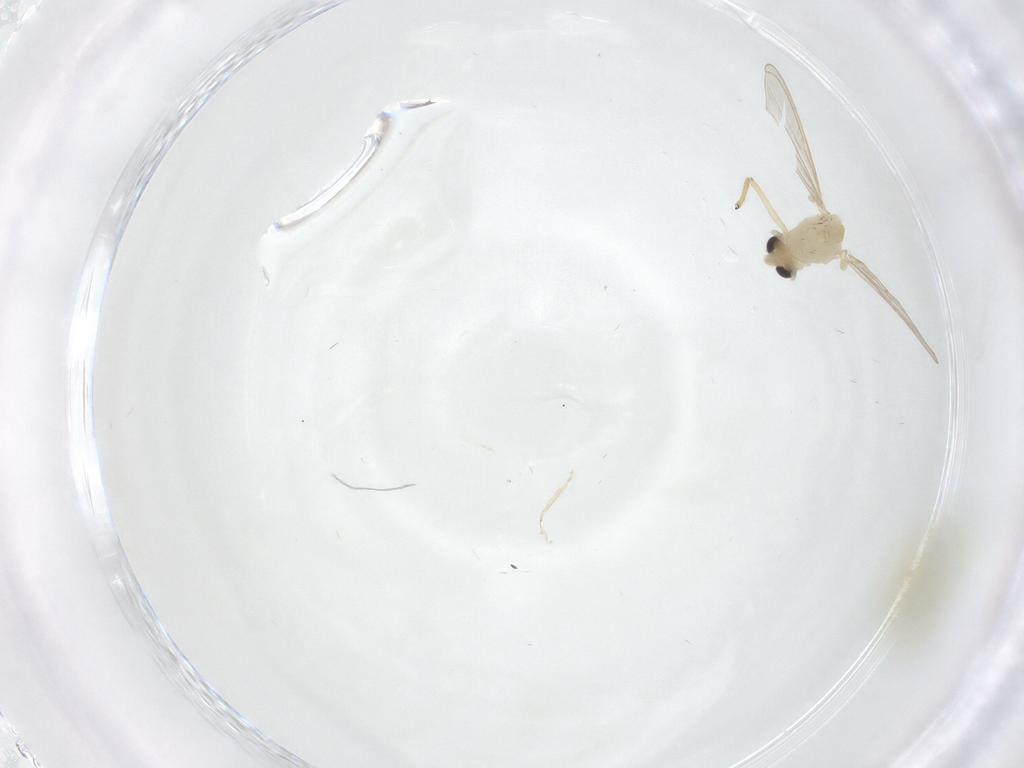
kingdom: Animalia
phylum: Arthropoda
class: Insecta
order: Diptera
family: Chironomidae
